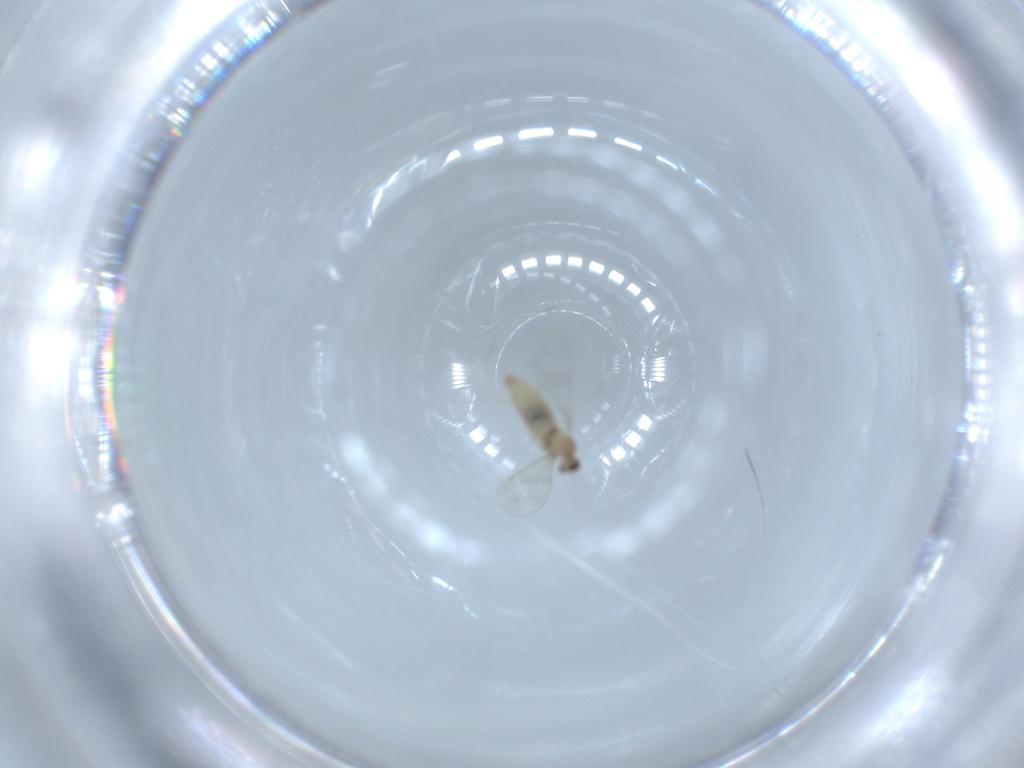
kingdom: Animalia
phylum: Arthropoda
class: Insecta
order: Diptera
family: Cecidomyiidae
